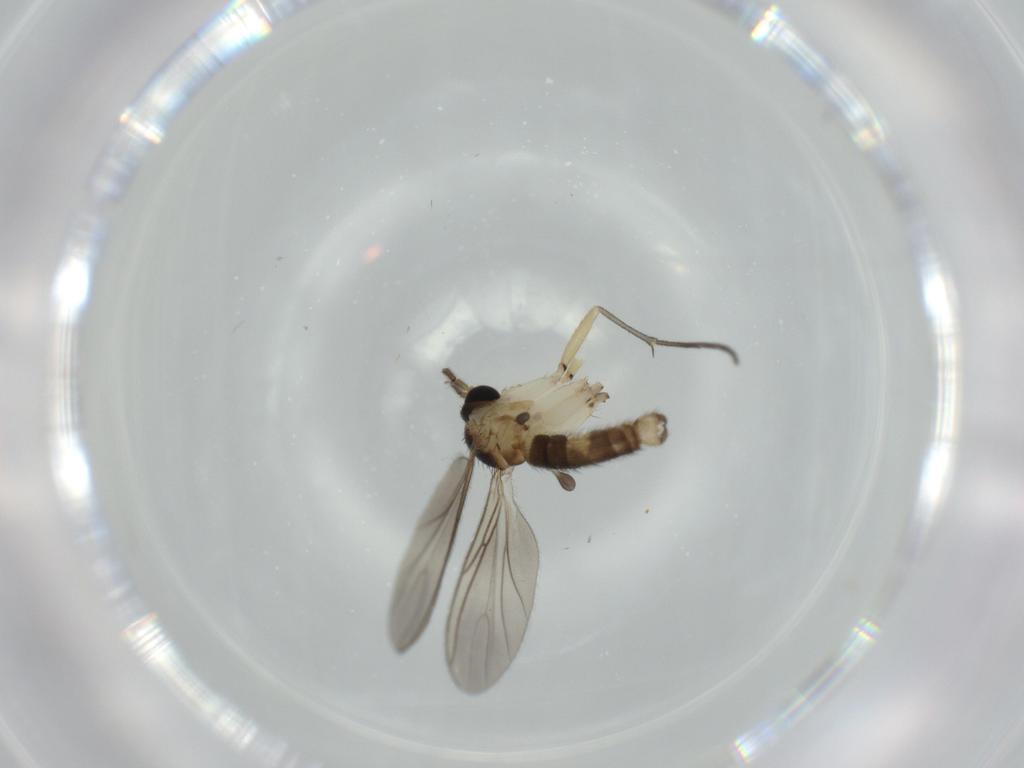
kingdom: Animalia
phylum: Arthropoda
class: Insecta
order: Diptera
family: Sciaridae
